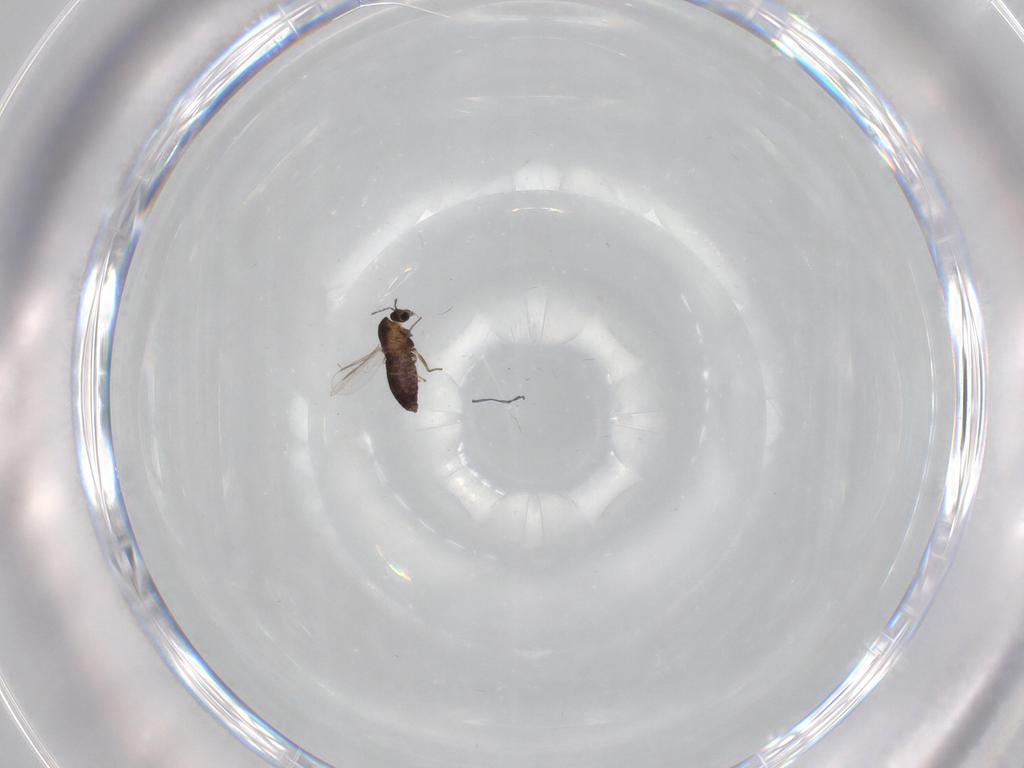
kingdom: Animalia
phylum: Arthropoda
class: Insecta
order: Diptera
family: Chironomidae
